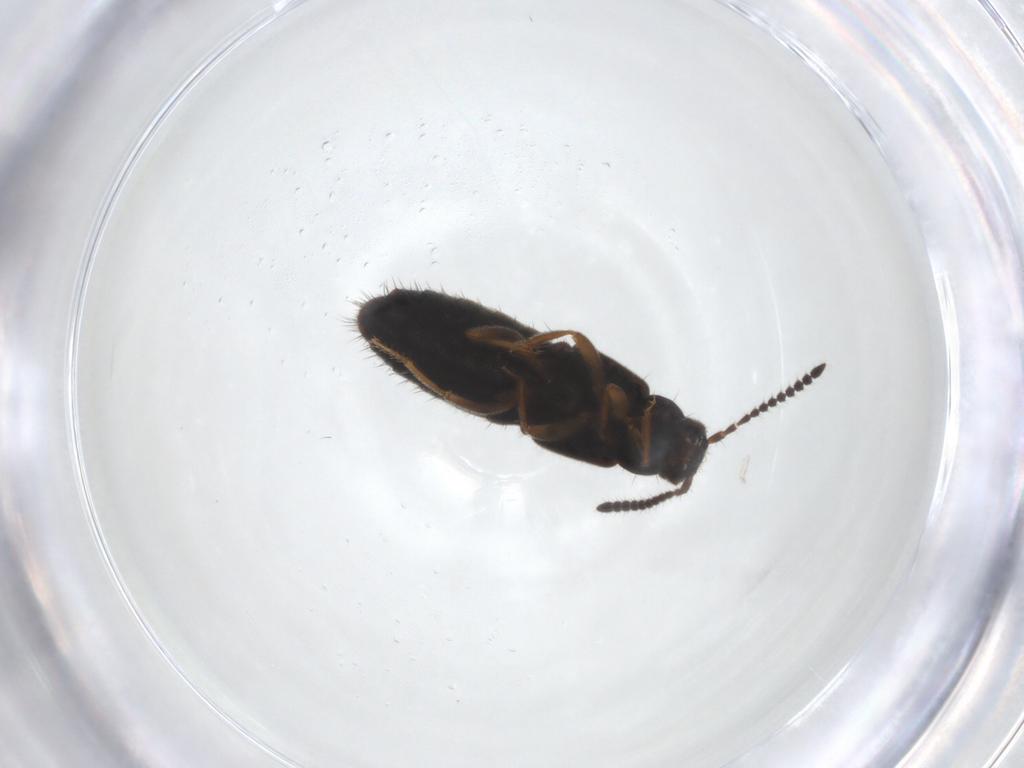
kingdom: Animalia
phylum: Arthropoda
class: Insecta
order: Coleoptera
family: Staphylinidae
